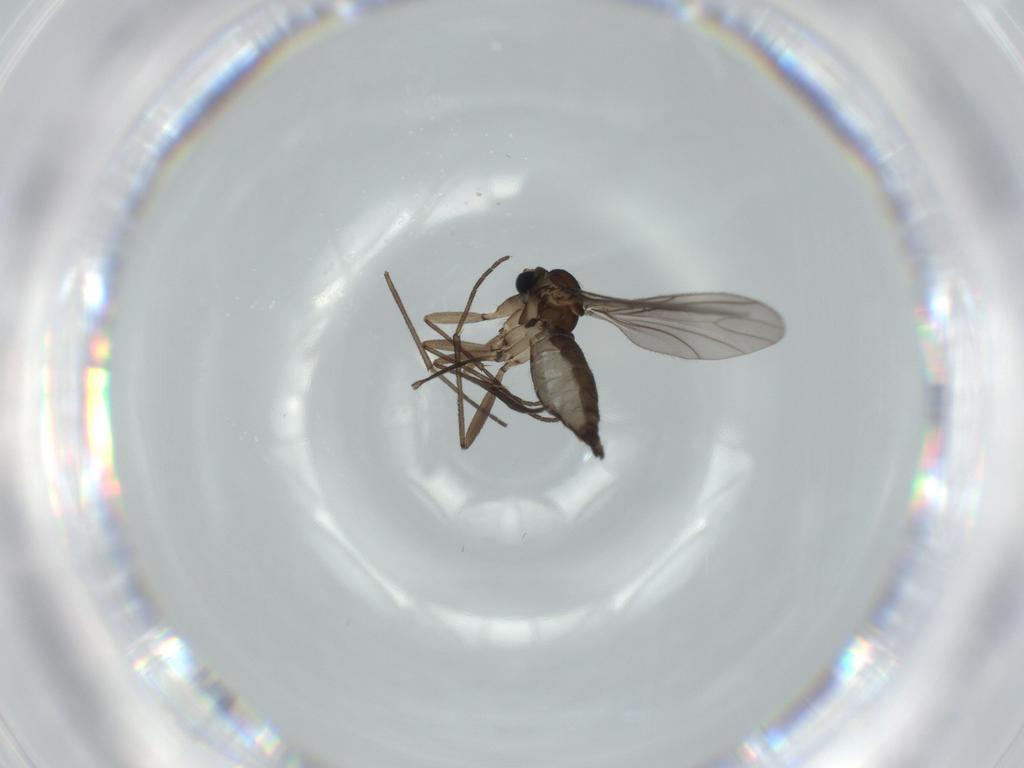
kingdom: Animalia
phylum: Arthropoda
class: Insecta
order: Diptera
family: Sciaridae
